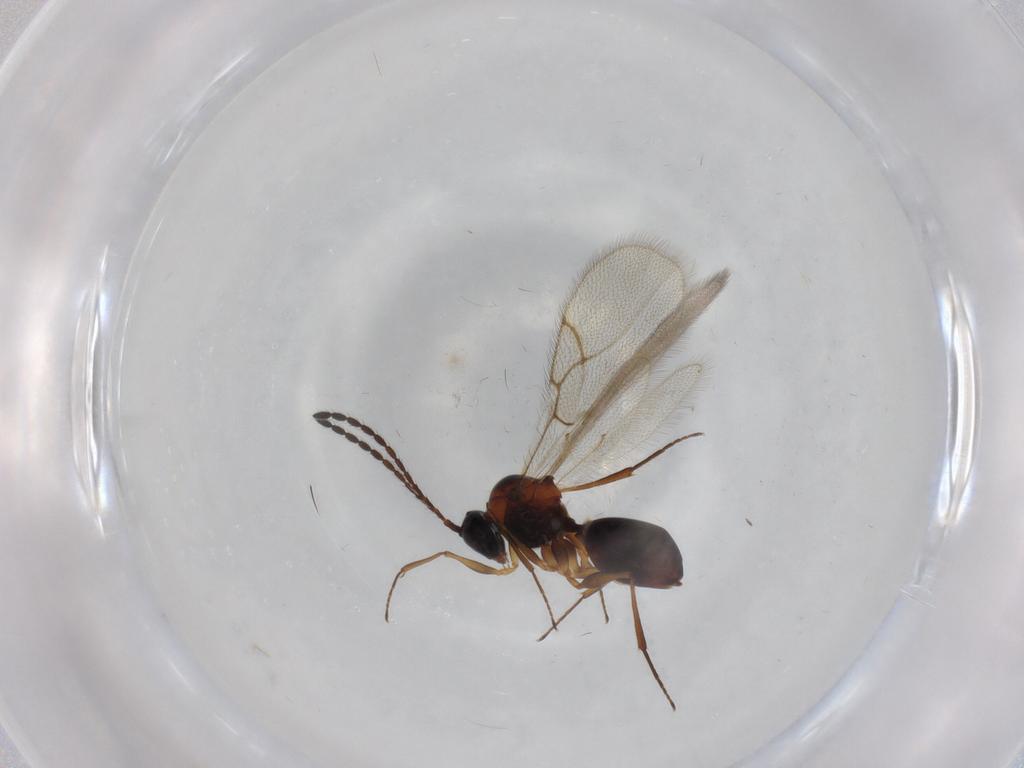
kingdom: Animalia
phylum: Arthropoda
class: Insecta
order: Hymenoptera
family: Figitidae
